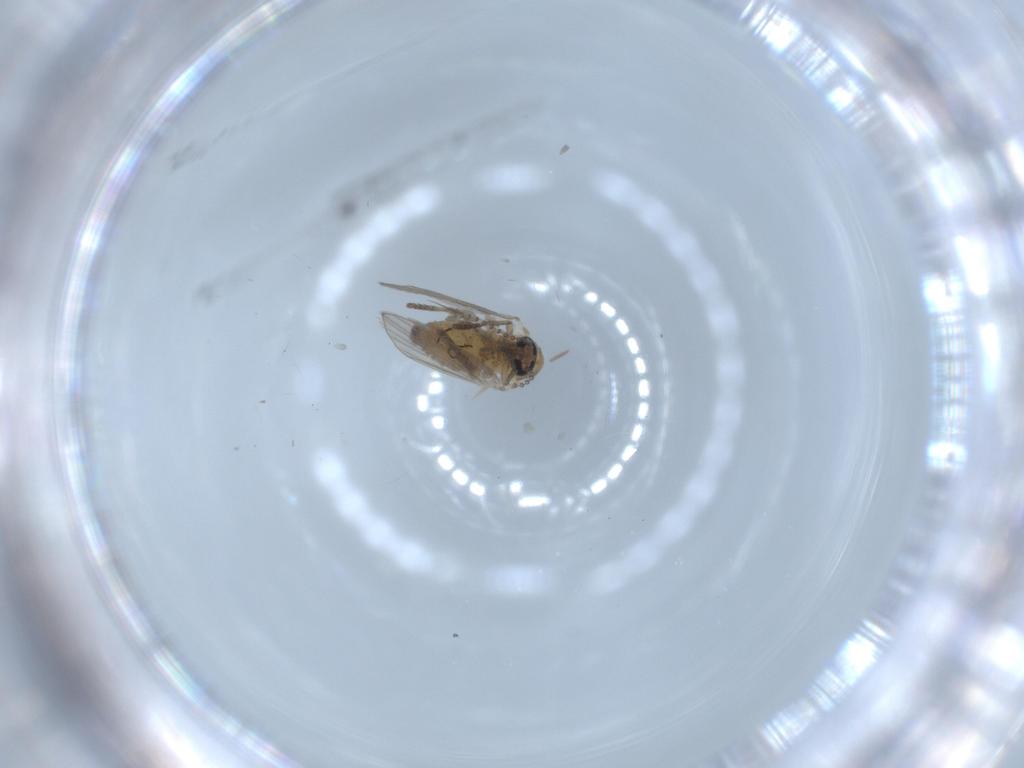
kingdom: Animalia
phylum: Arthropoda
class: Insecta
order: Diptera
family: Psychodidae
